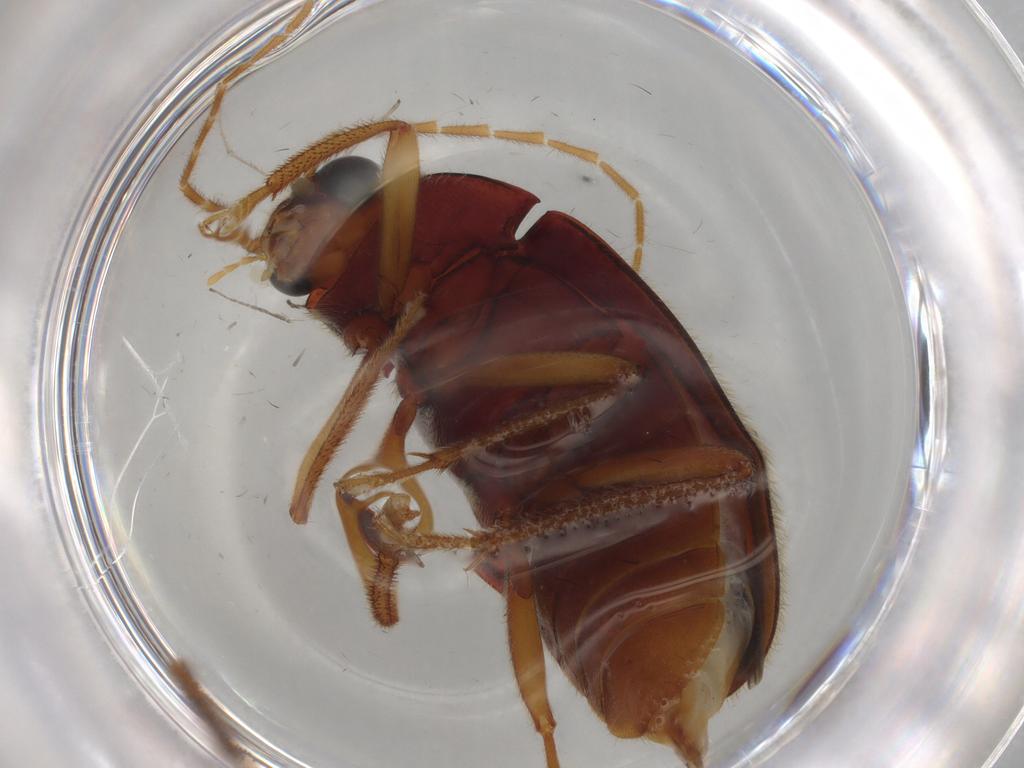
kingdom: Animalia
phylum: Arthropoda
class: Insecta
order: Coleoptera
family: Ptilodactylidae
